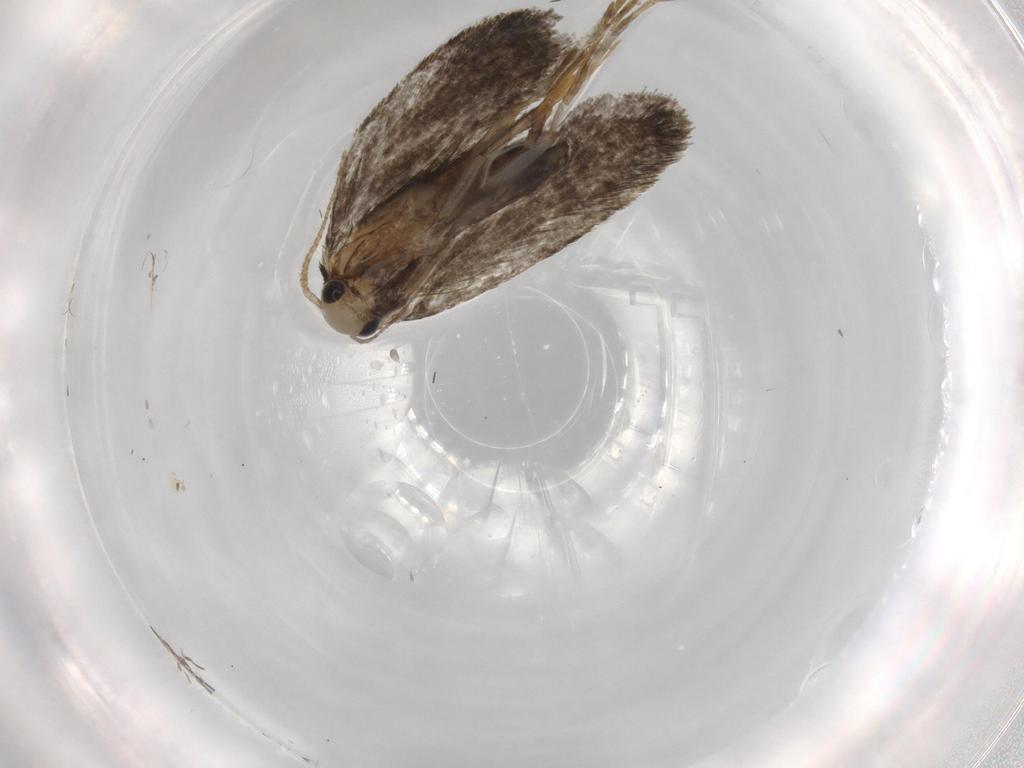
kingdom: Animalia
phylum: Arthropoda
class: Insecta
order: Lepidoptera
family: Psychidae
